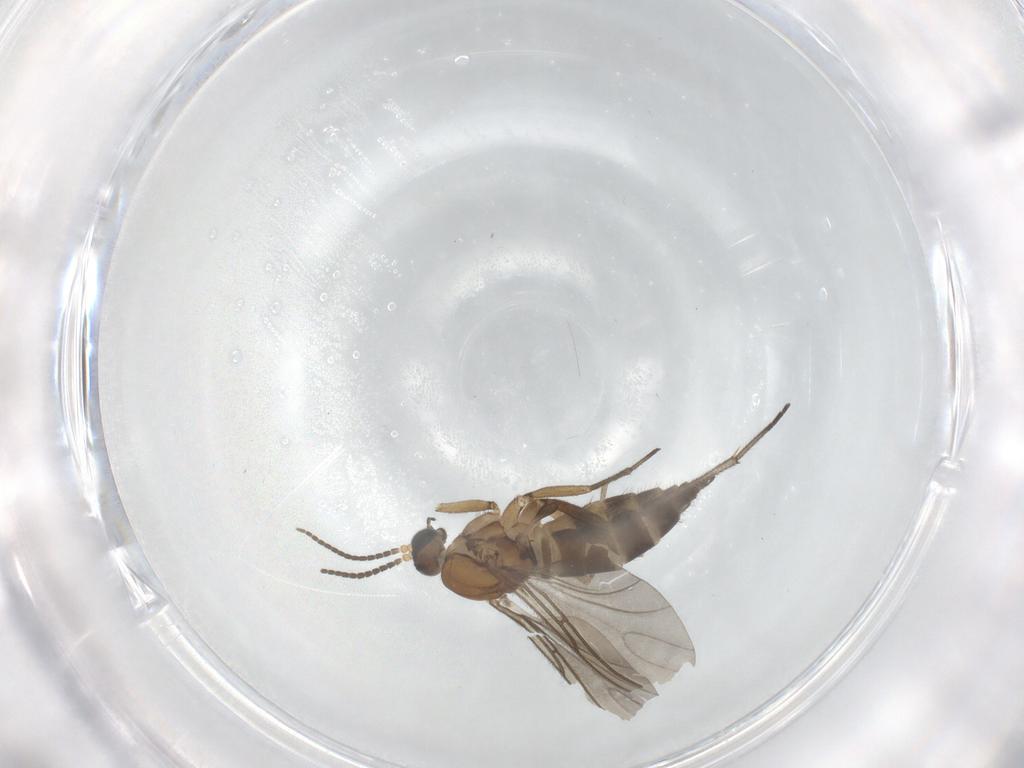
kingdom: Animalia
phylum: Arthropoda
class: Insecta
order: Diptera
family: Sciaridae
